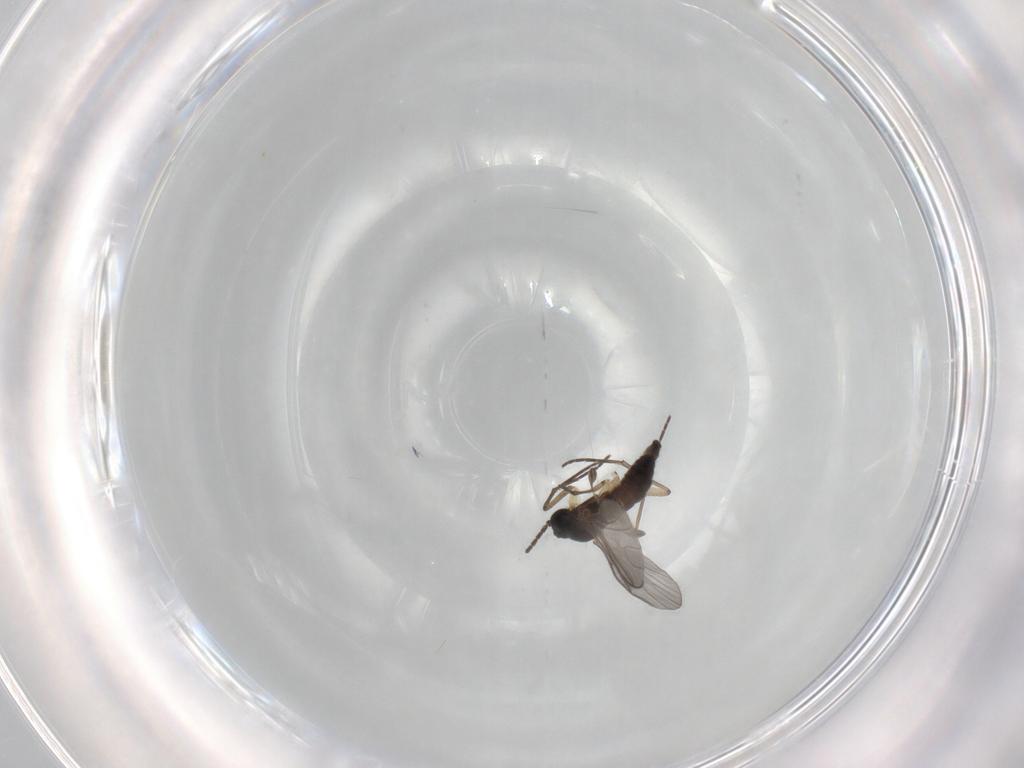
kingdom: Animalia
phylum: Arthropoda
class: Insecta
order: Diptera
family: Sciaridae
